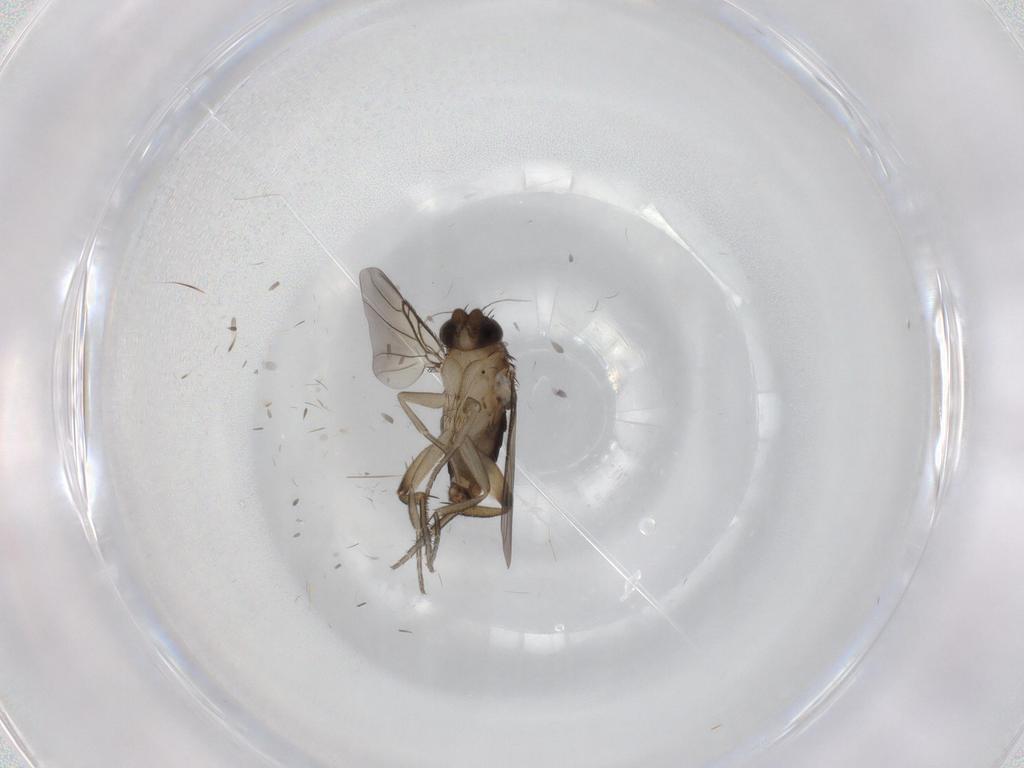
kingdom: Animalia
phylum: Arthropoda
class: Insecta
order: Diptera
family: Phoridae
